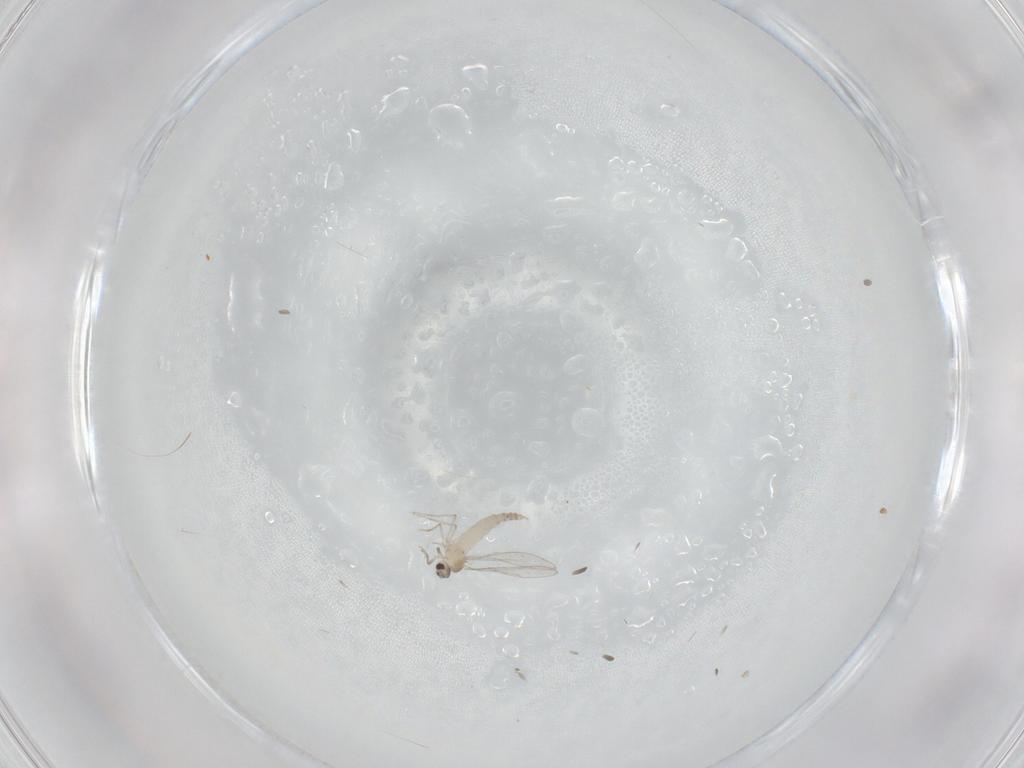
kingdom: Animalia
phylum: Arthropoda
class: Insecta
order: Diptera
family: Cecidomyiidae
